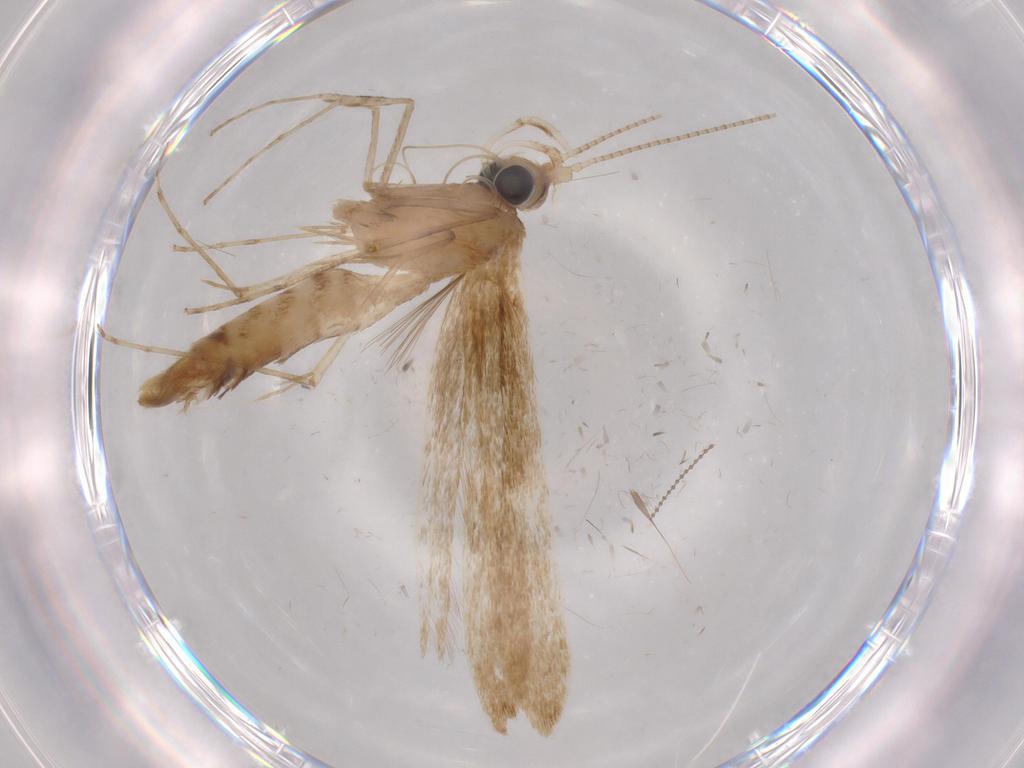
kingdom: Animalia
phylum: Arthropoda
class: Insecta
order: Diptera
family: Sciaridae
